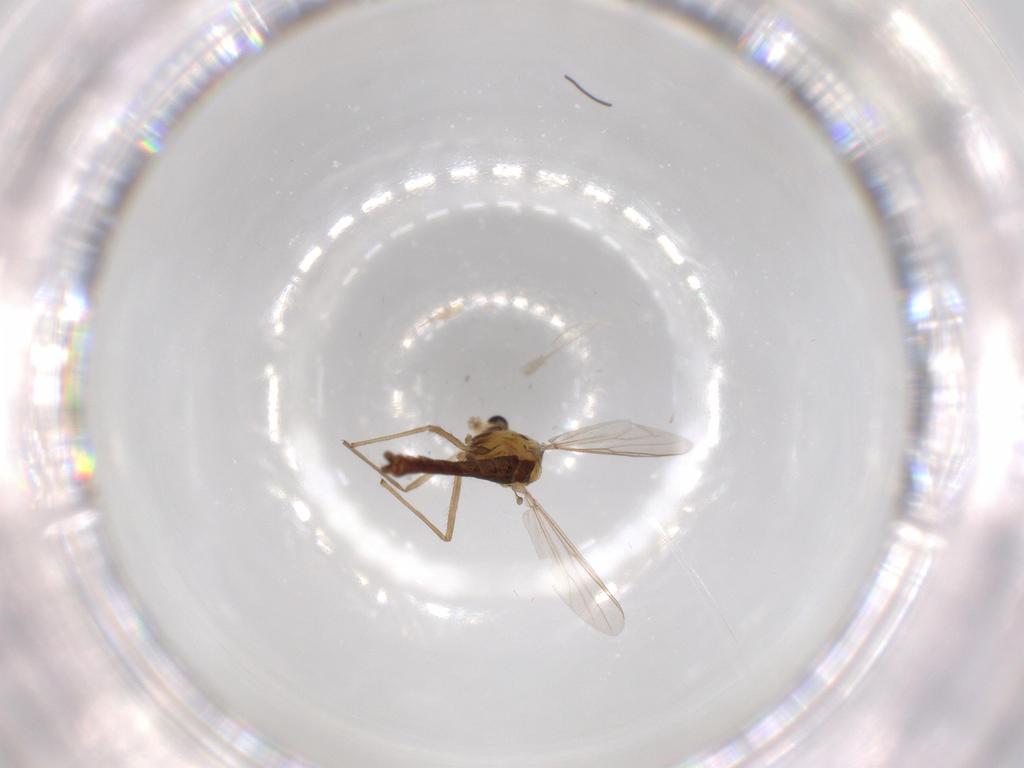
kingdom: Animalia
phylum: Arthropoda
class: Insecta
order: Diptera
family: Chironomidae
